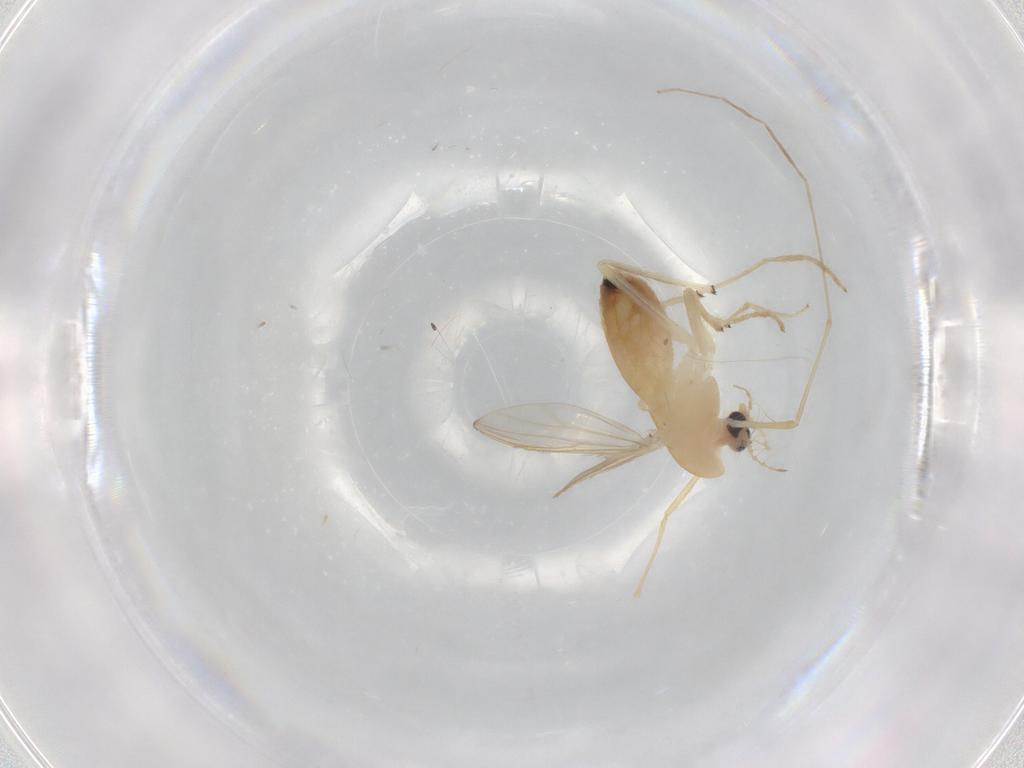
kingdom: Animalia
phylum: Arthropoda
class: Insecta
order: Diptera
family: Chironomidae
